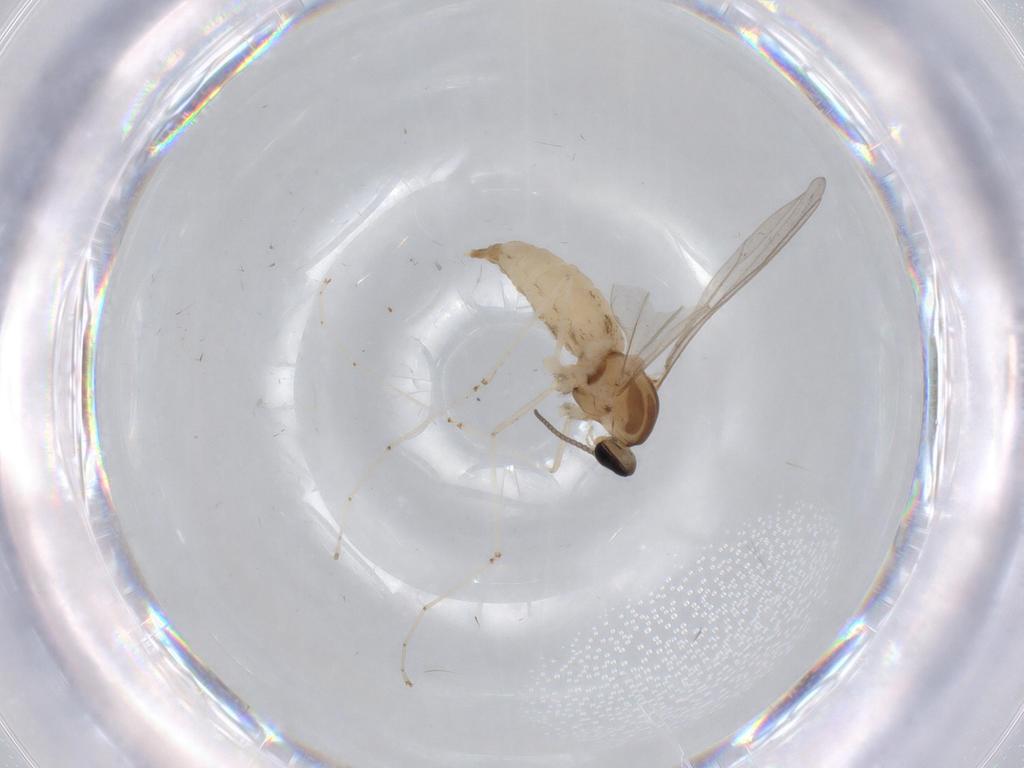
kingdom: Animalia
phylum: Arthropoda
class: Insecta
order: Diptera
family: Cecidomyiidae
